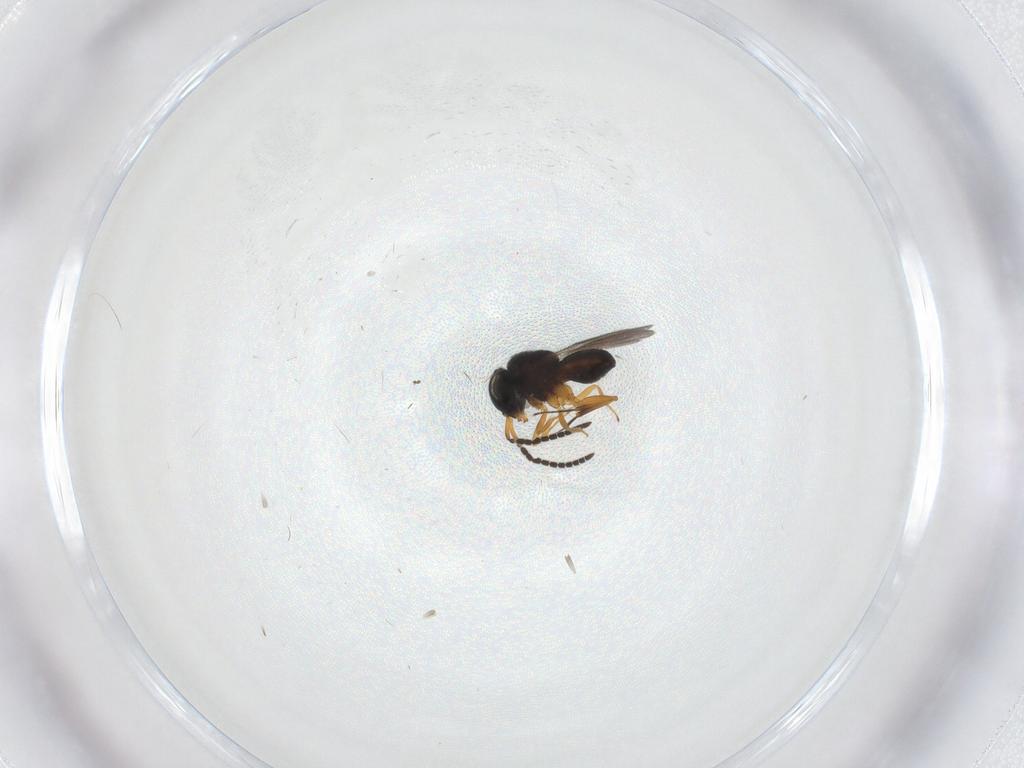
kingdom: Animalia
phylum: Arthropoda
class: Insecta
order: Hymenoptera
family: Scelionidae
